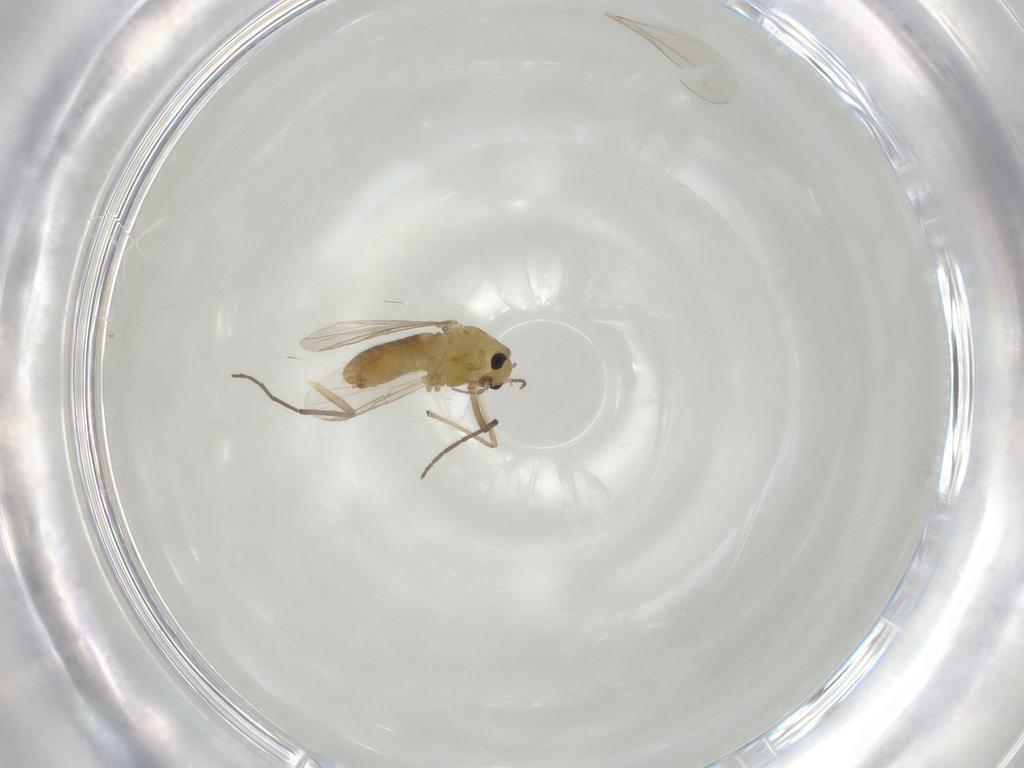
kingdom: Animalia
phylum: Arthropoda
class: Insecta
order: Diptera
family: Chironomidae
